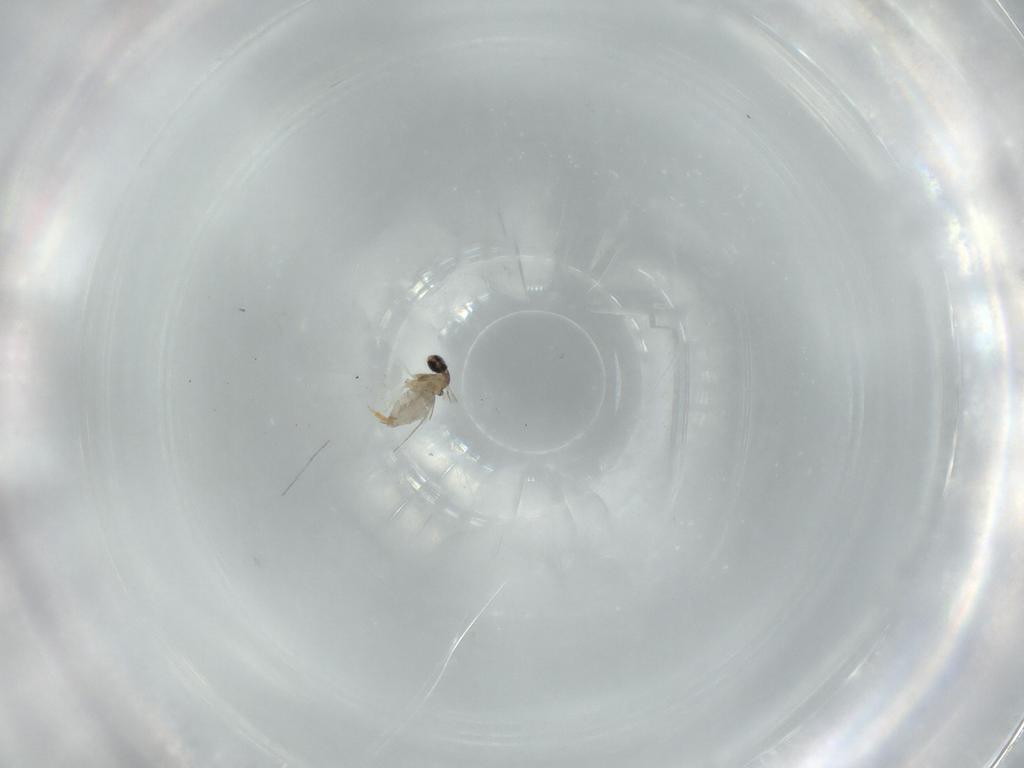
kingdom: Animalia
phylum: Arthropoda
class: Insecta
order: Diptera
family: Cecidomyiidae
